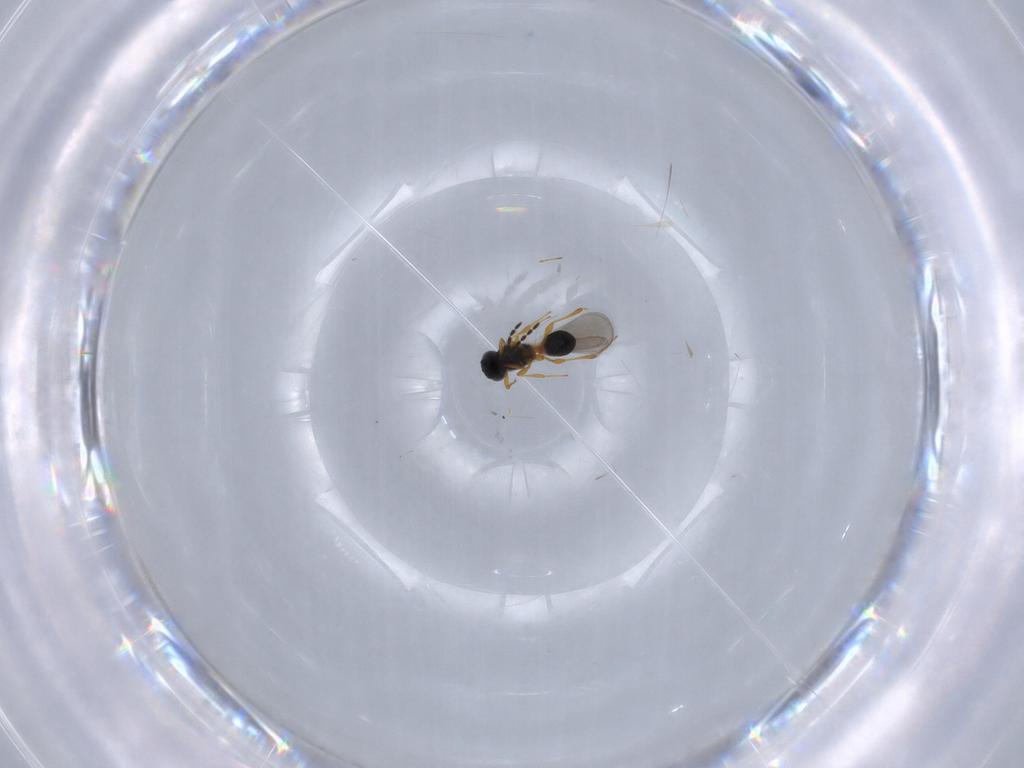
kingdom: Animalia
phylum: Arthropoda
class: Insecta
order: Hymenoptera
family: Platygastridae
